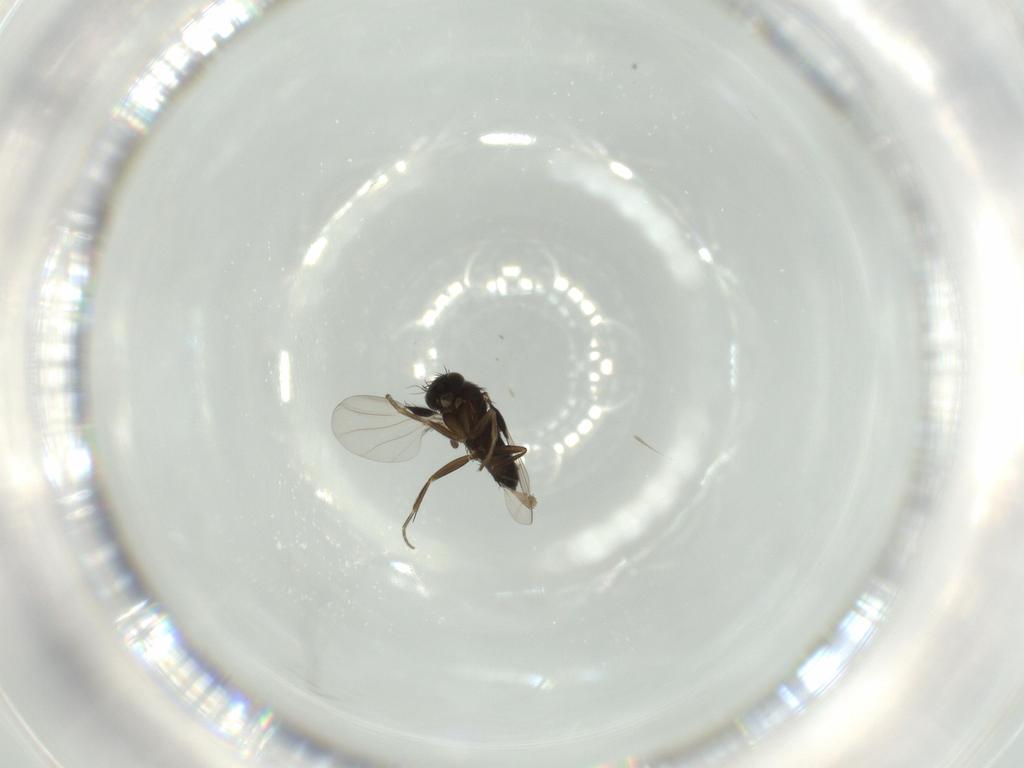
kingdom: Animalia
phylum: Arthropoda
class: Insecta
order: Diptera
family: Phoridae
